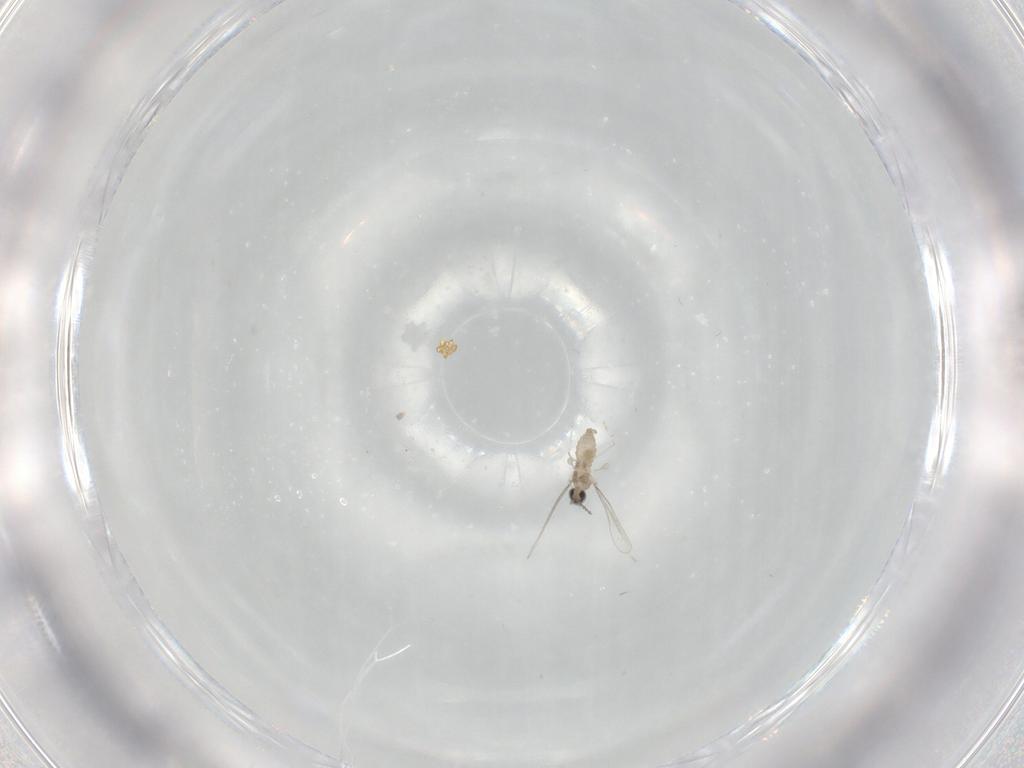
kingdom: Animalia
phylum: Arthropoda
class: Insecta
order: Diptera
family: Cecidomyiidae
